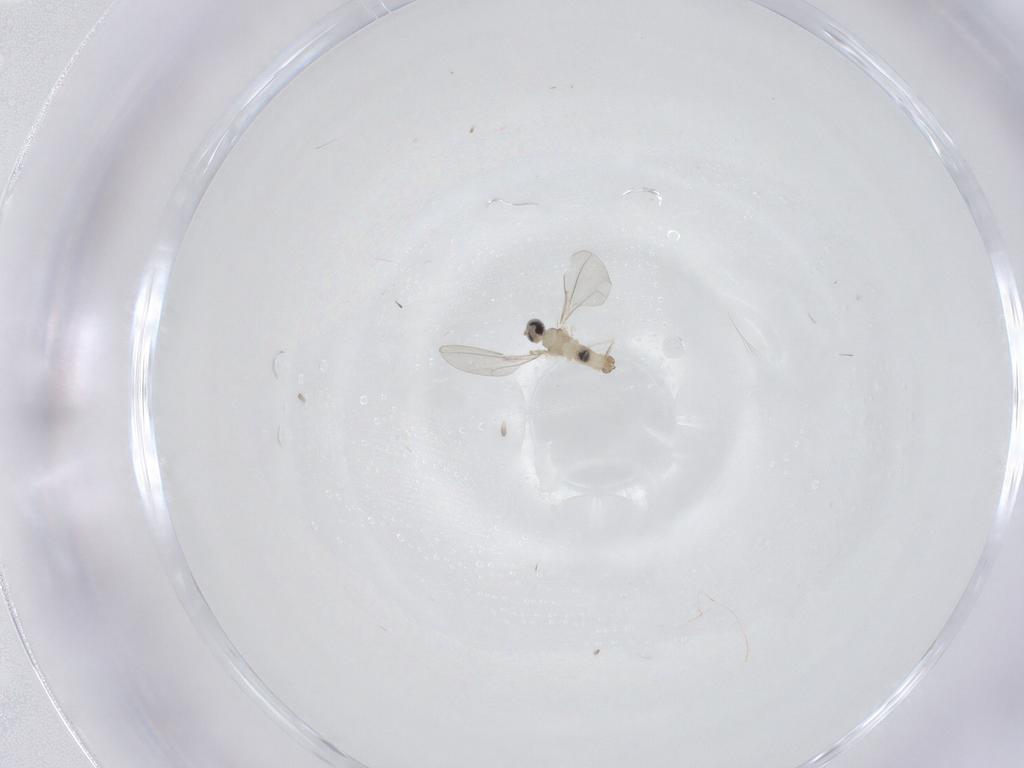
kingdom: Animalia
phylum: Arthropoda
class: Insecta
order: Diptera
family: Cecidomyiidae
